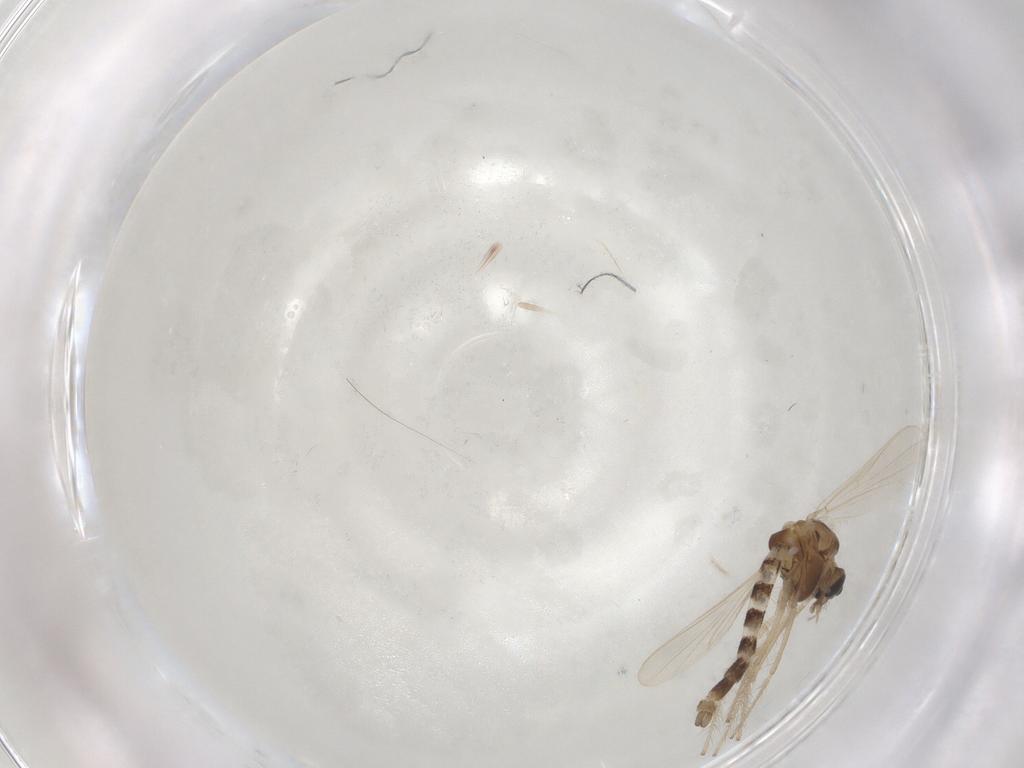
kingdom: Animalia
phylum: Arthropoda
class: Insecta
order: Diptera
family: Chironomidae
